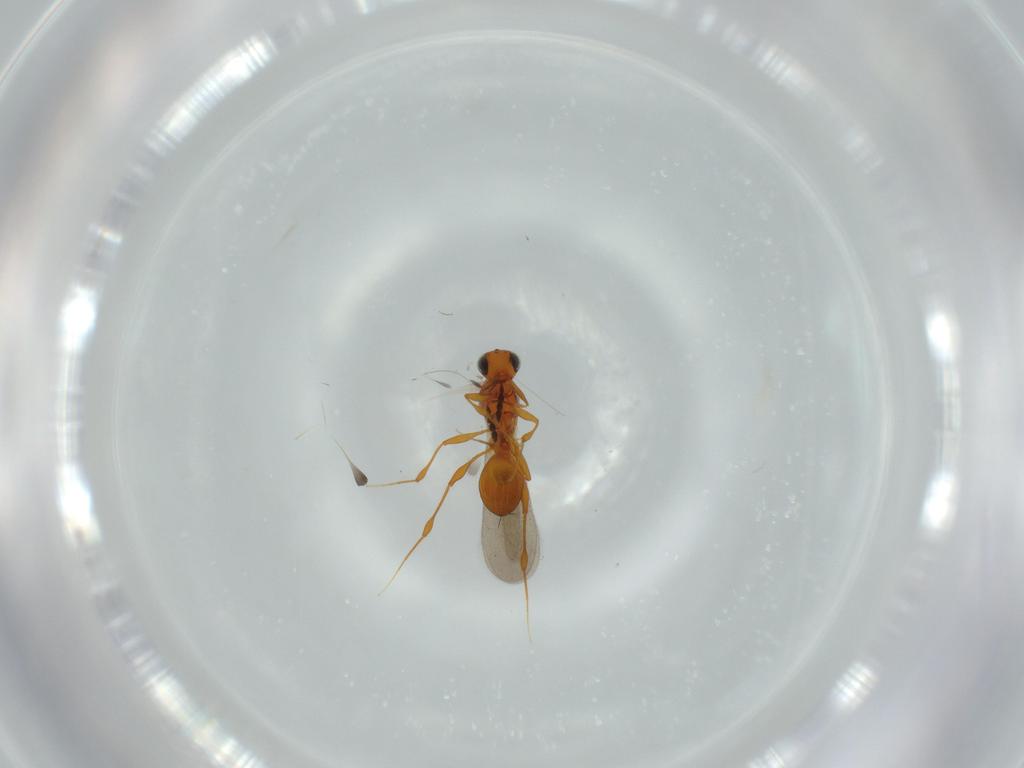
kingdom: Animalia
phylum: Arthropoda
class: Insecta
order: Hymenoptera
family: Platygastridae
